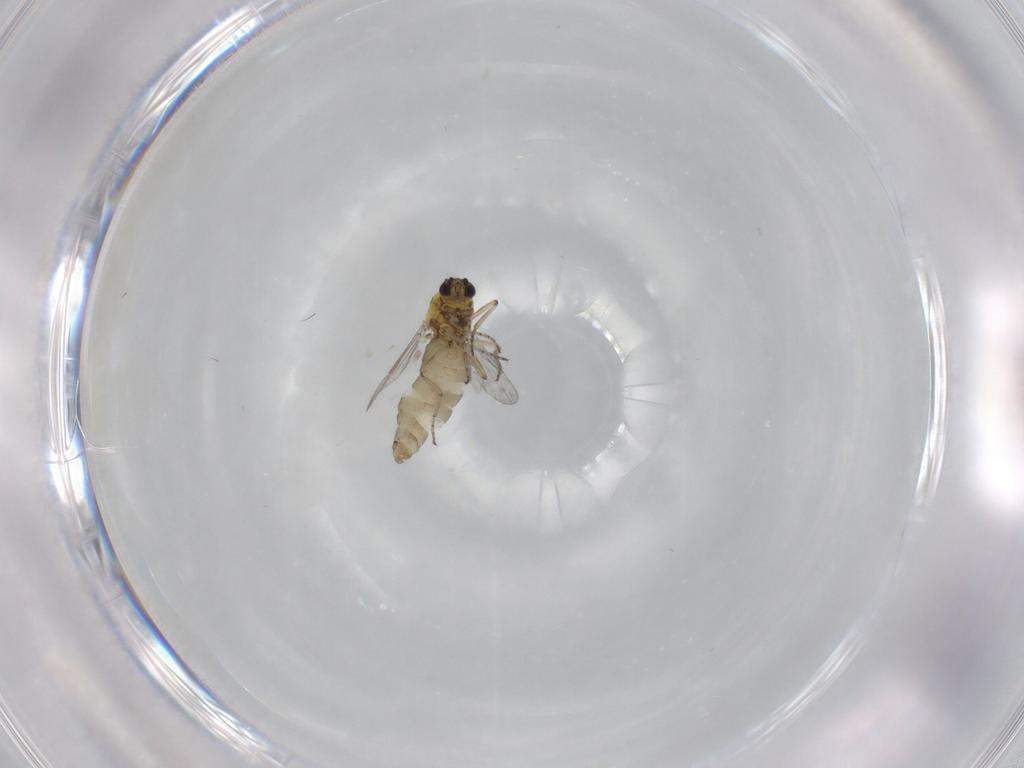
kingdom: Animalia
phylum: Arthropoda
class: Insecta
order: Diptera
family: Ceratopogonidae
